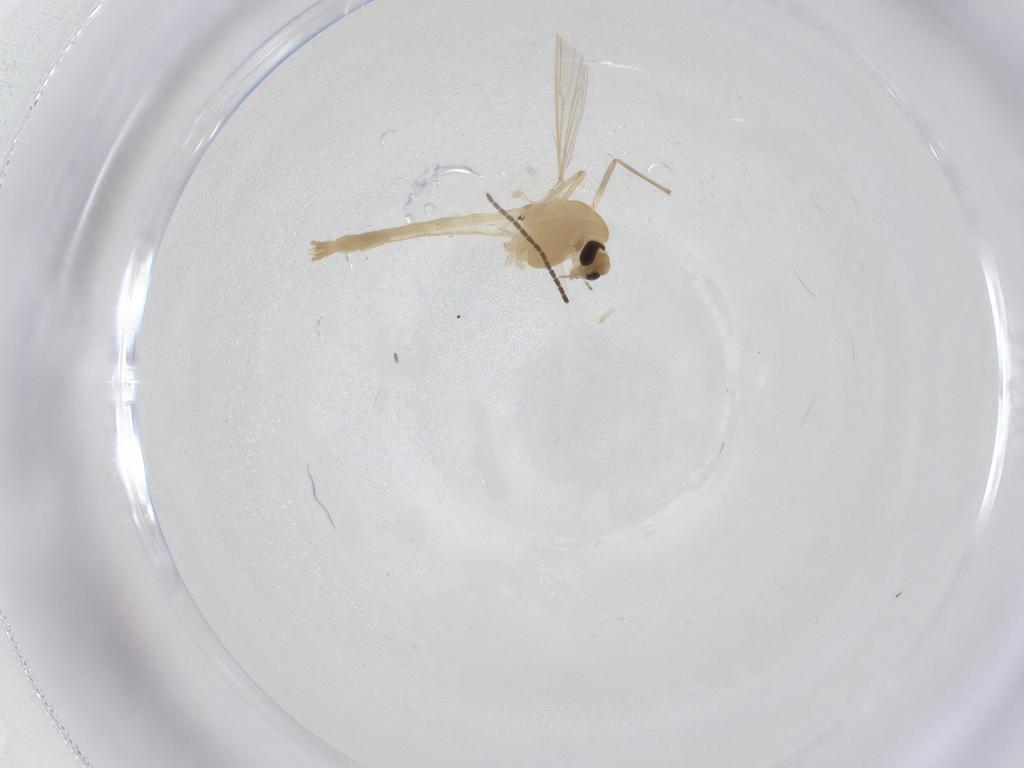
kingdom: Animalia
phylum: Arthropoda
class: Insecta
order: Diptera
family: Chironomidae
